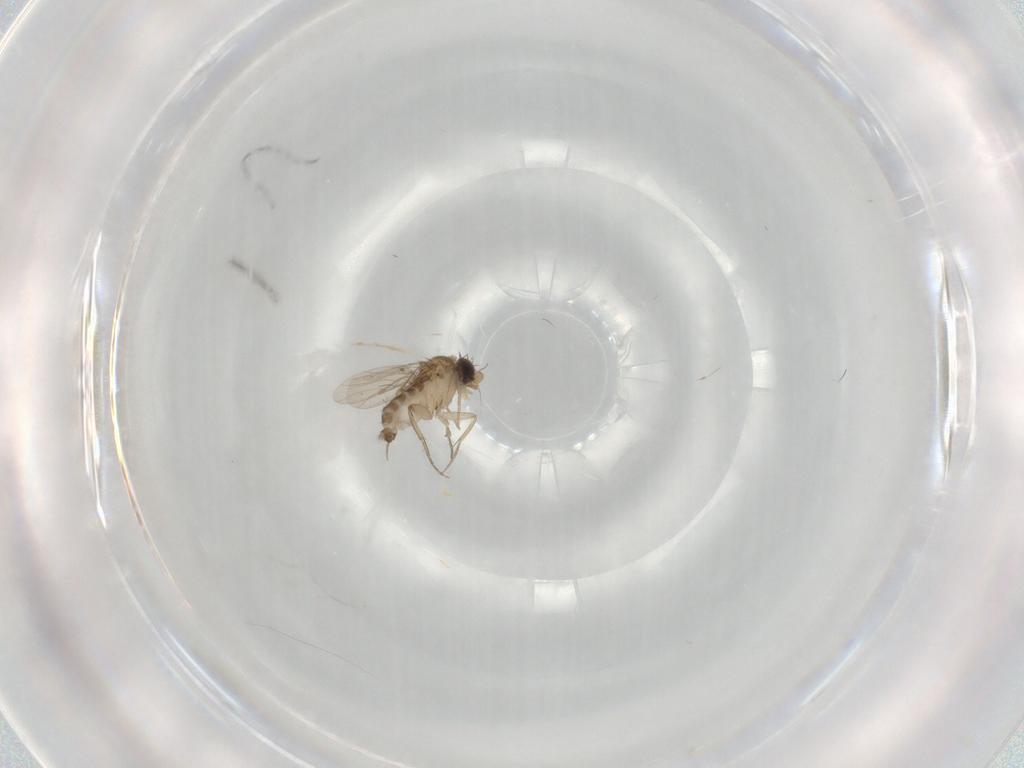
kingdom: Animalia
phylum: Arthropoda
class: Insecta
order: Diptera
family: Phoridae
